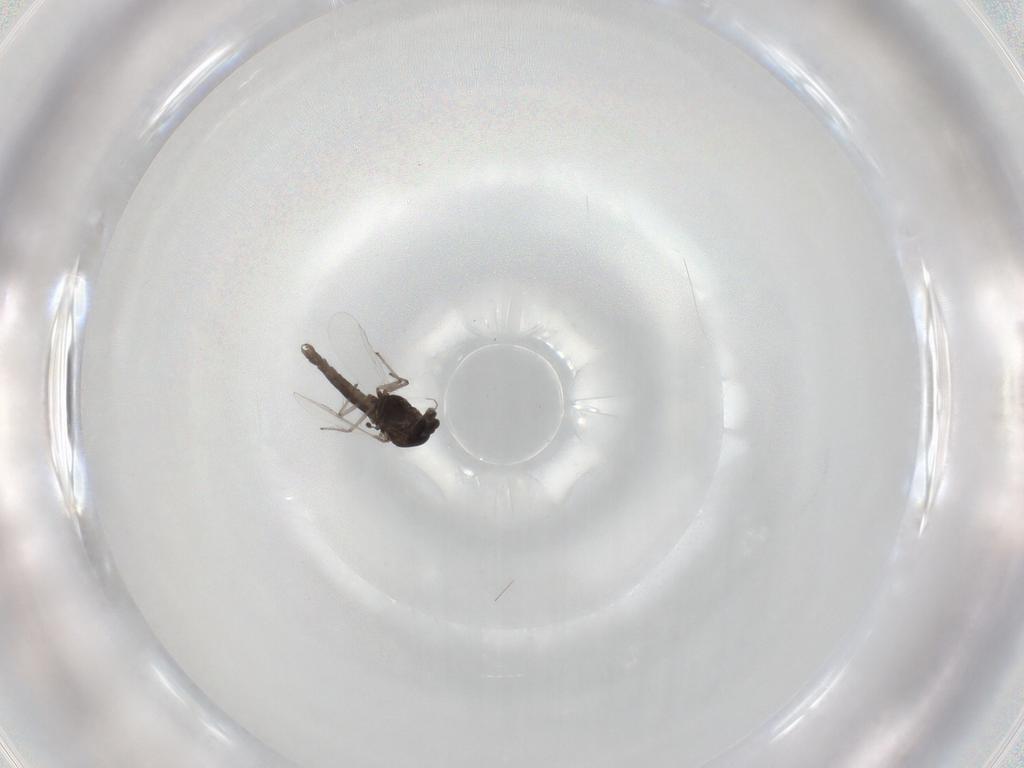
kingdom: Animalia
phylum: Arthropoda
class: Insecta
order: Diptera
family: Chironomidae
